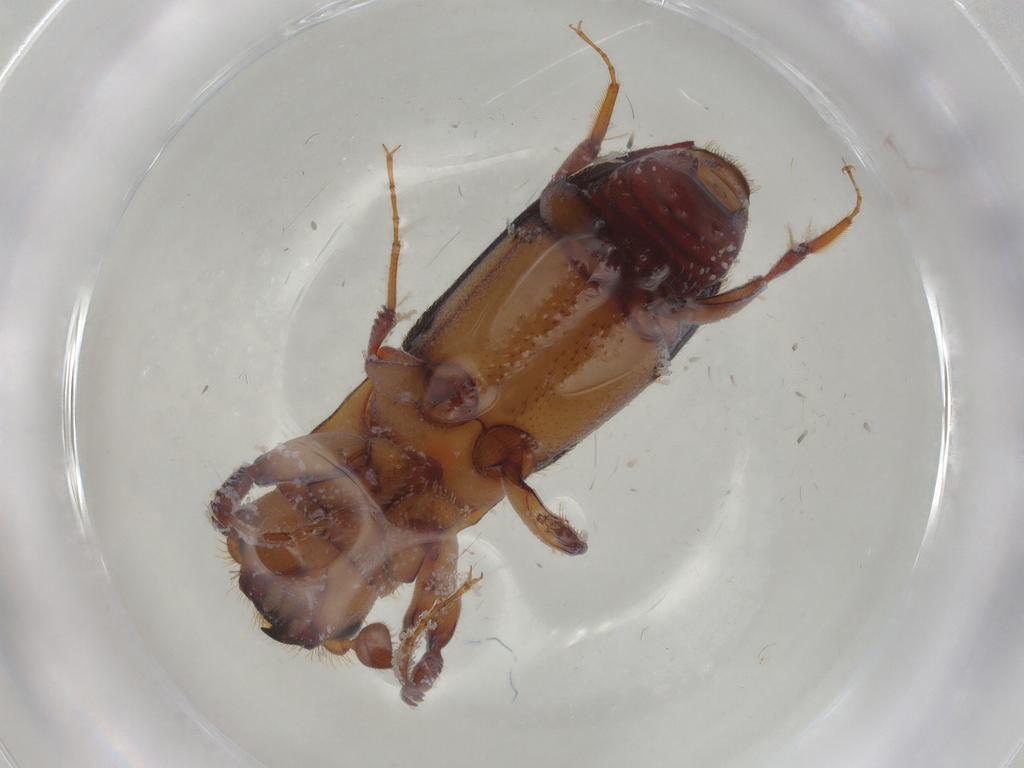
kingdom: Animalia
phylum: Arthropoda
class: Insecta
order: Coleoptera
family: Curculionidae
